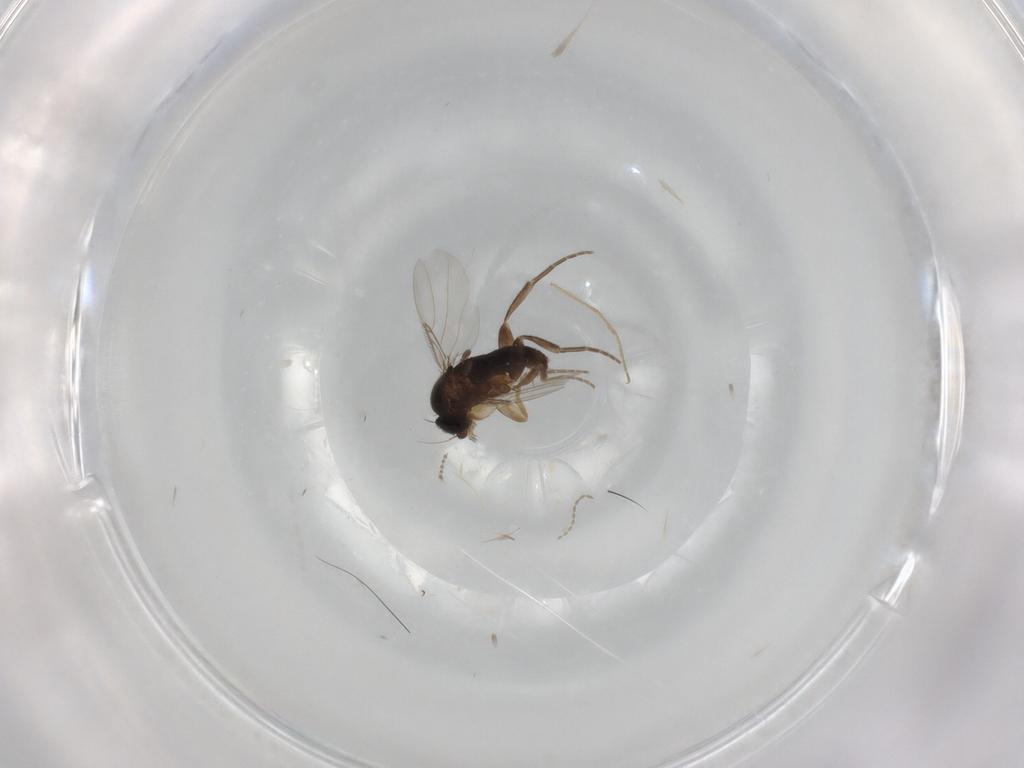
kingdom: Animalia
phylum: Arthropoda
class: Insecta
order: Diptera
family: Phoridae
